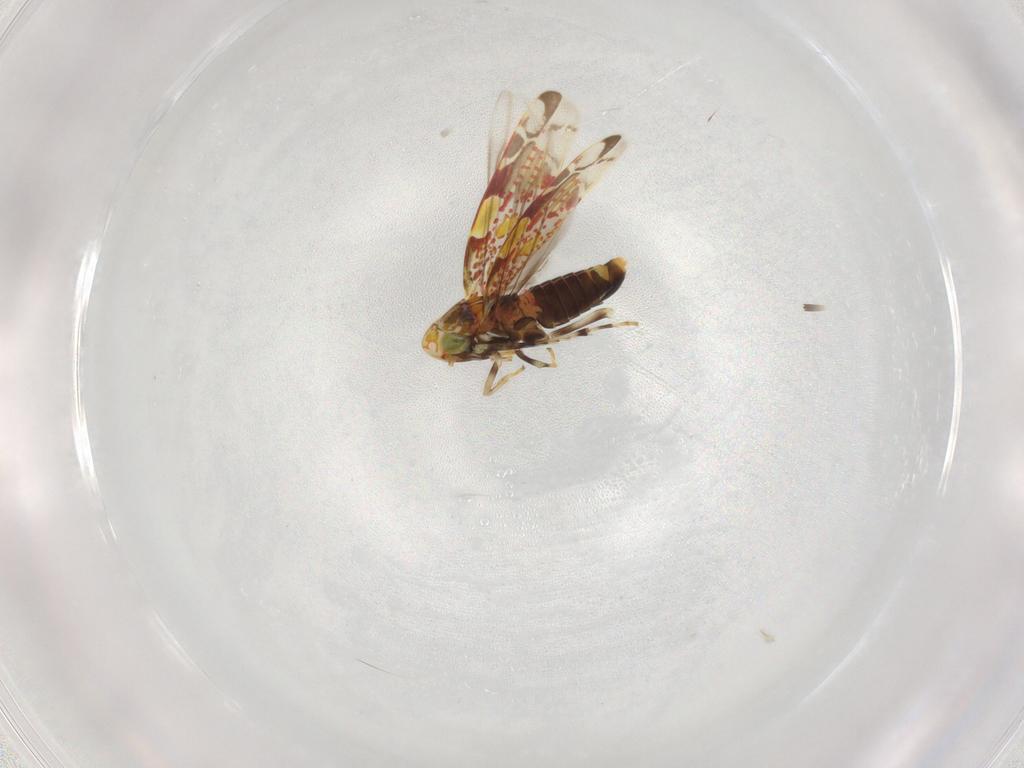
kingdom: Animalia
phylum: Arthropoda
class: Insecta
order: Hemiptera
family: Cicadellidae
